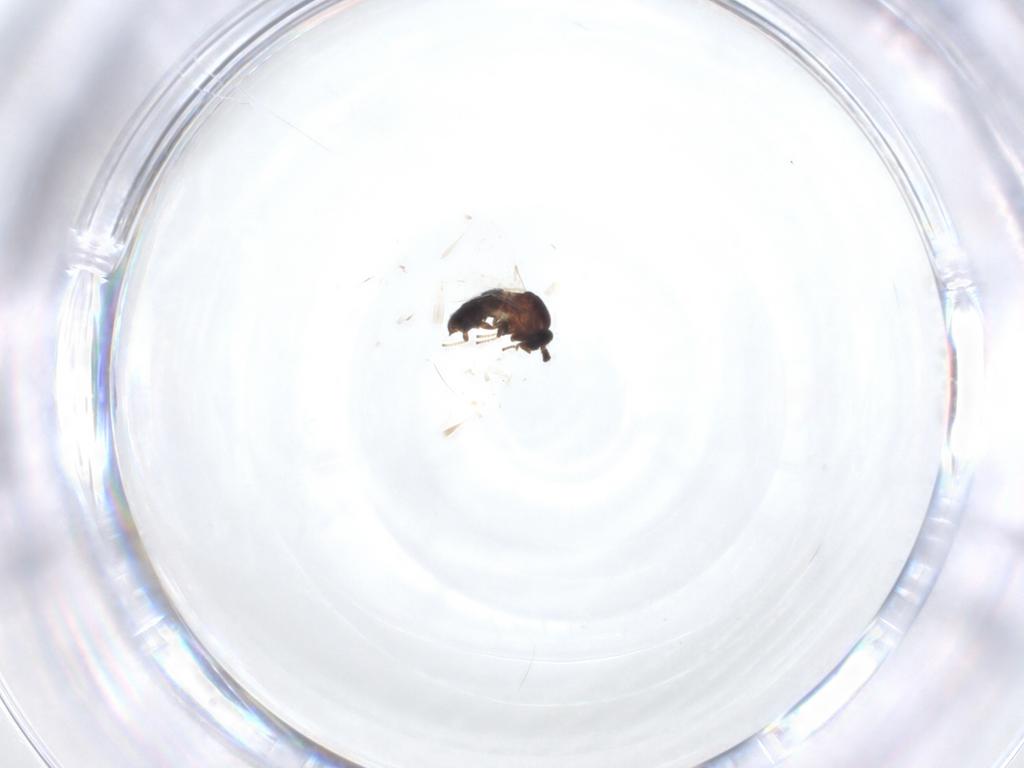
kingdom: Animalia
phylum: Arthropoda
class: Insecta
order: Diptera
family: Scatopsidae
